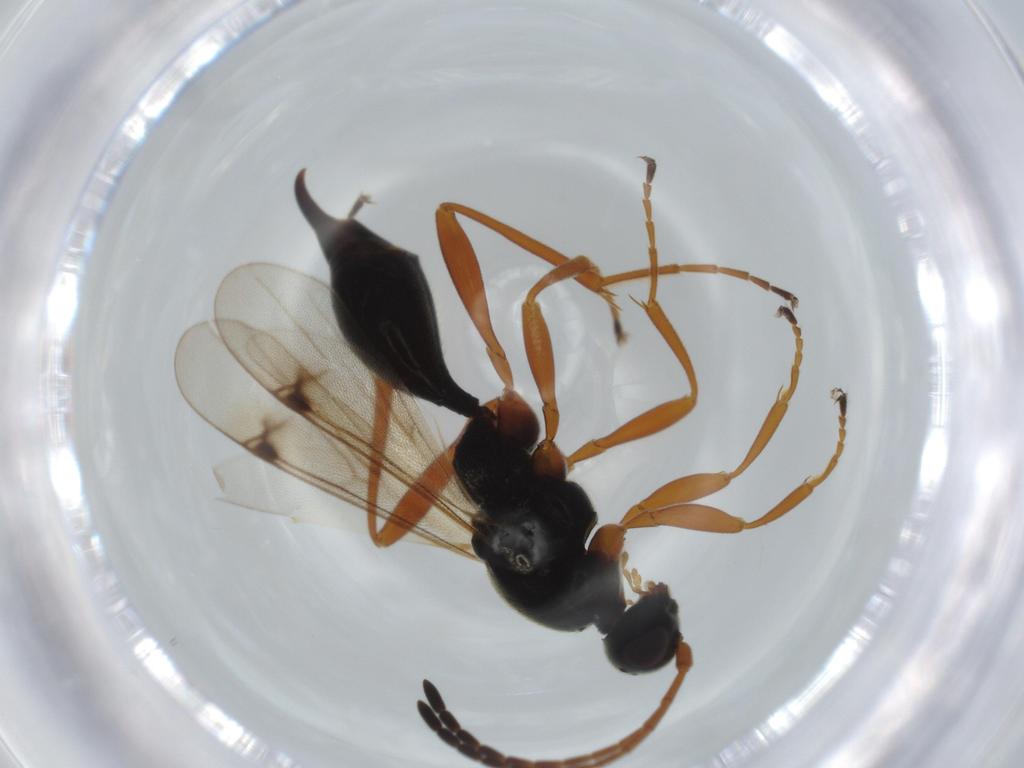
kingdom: Animalia
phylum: Arthropoda
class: Insecta
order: Hymenoptera
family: Proctotrupidae
